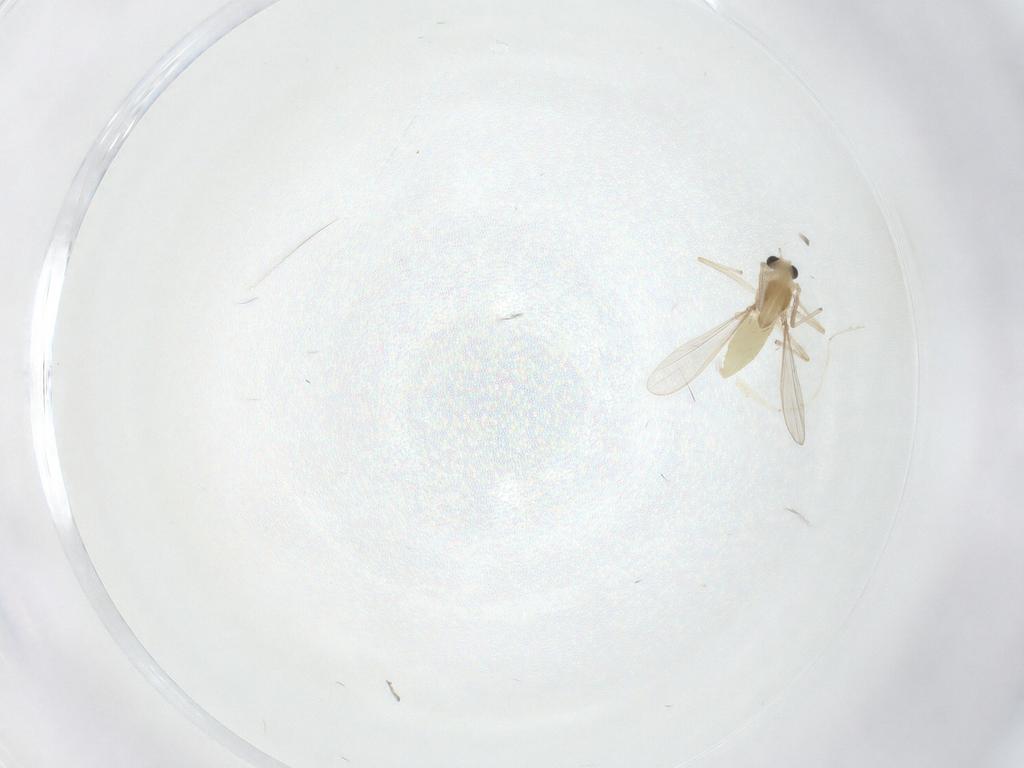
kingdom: Animalia
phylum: Arthropoda
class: Insecta
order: Diptera
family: Chironomidae
